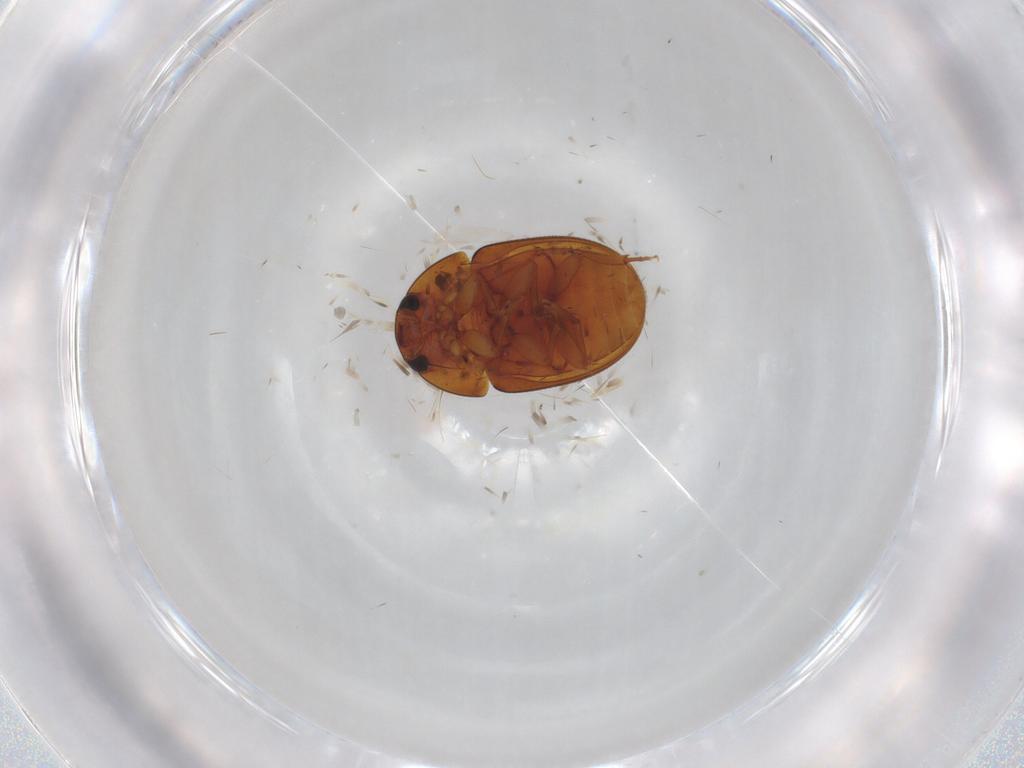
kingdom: Animalia
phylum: Arthropoda
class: Insecta
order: Coleoptera
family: Phalacridae
